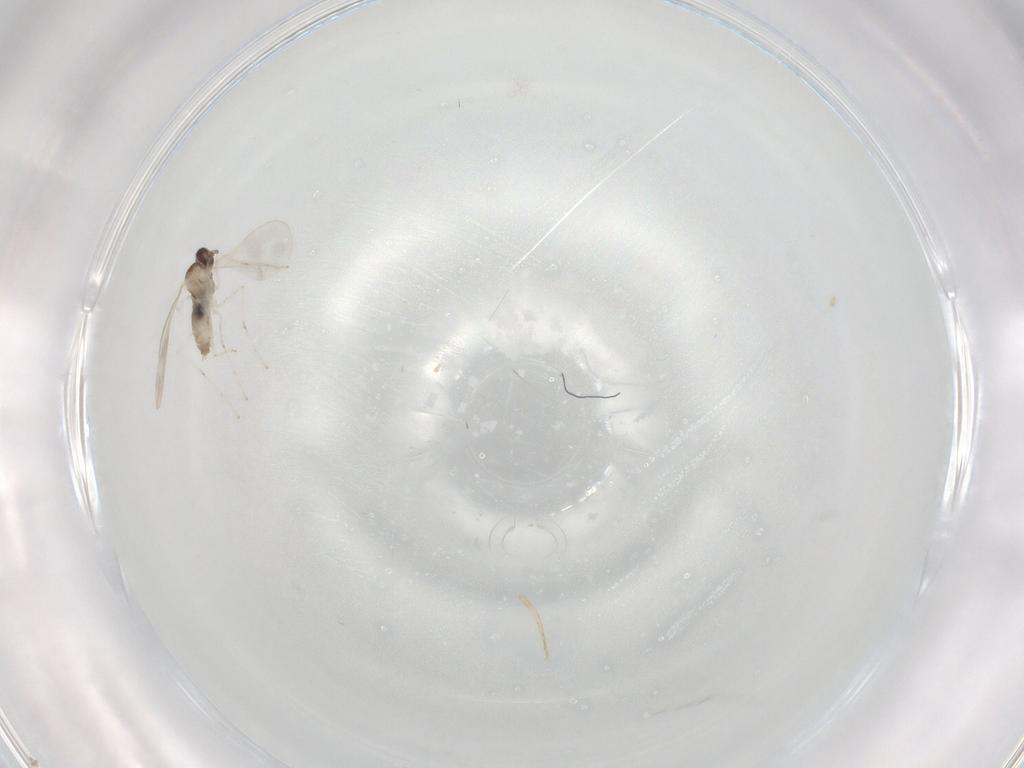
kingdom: Animalia
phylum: Arthropoda
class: Insecta
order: Diptera
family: Cecidomyiidae
